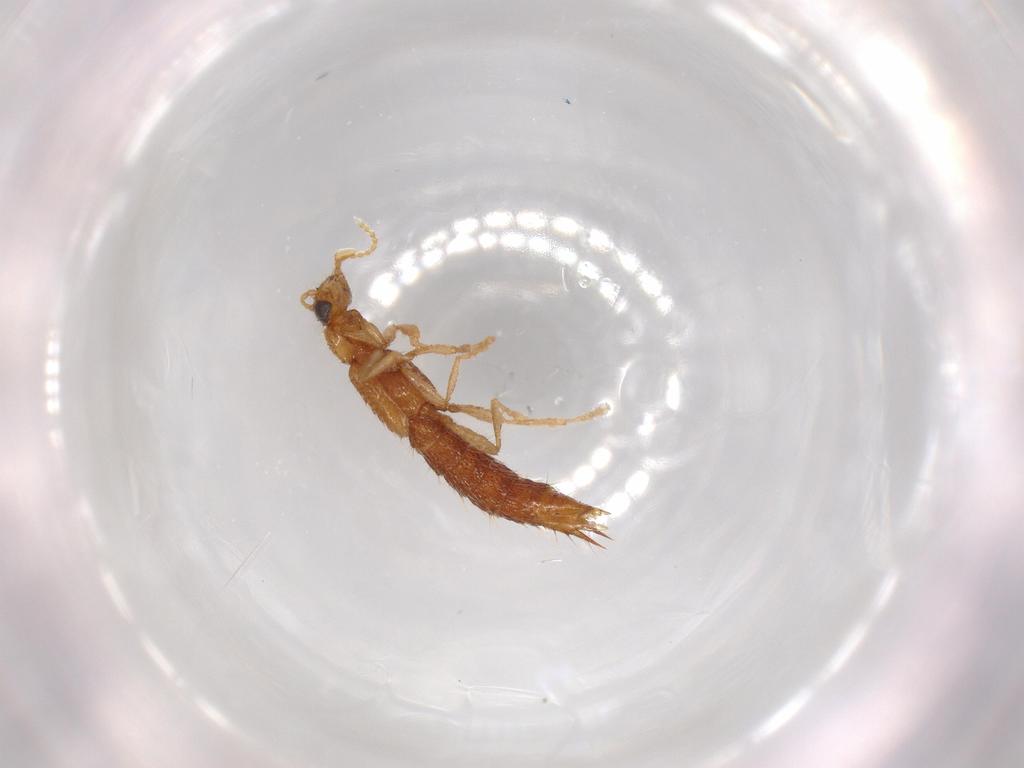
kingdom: Animalia
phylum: Arthropoda
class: Insecta
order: Coleoptera
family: Staphylinidae
